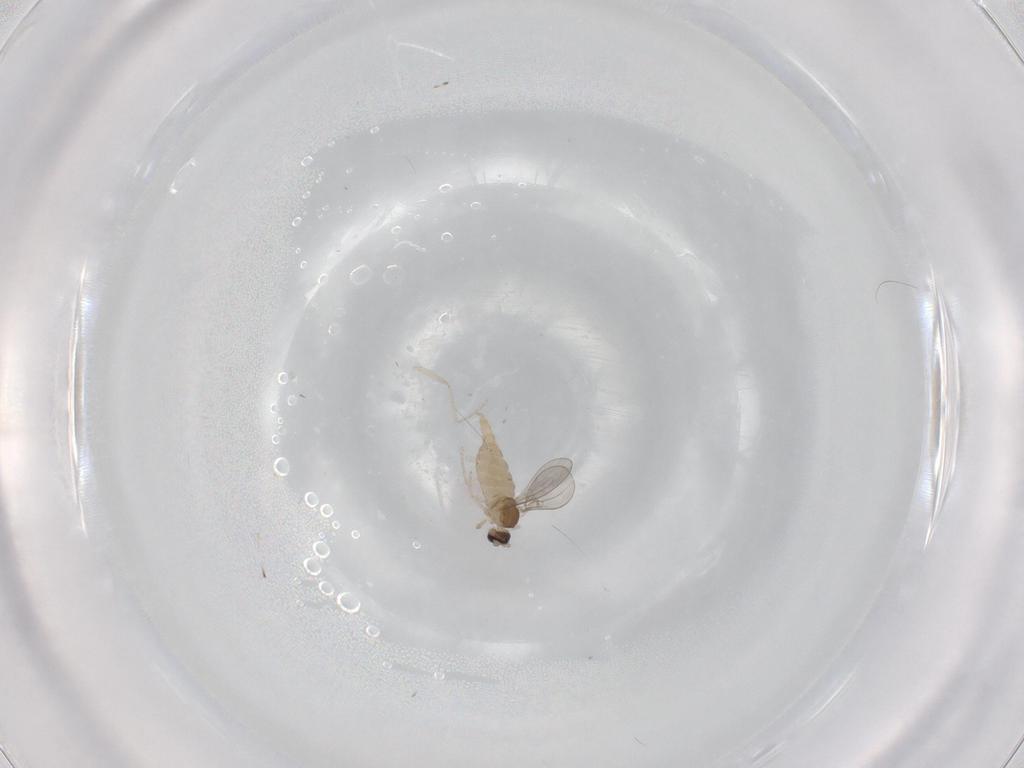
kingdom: Animalia
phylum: Arthropoda
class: Insecta
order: Diptera
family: Cecidomyiidae
